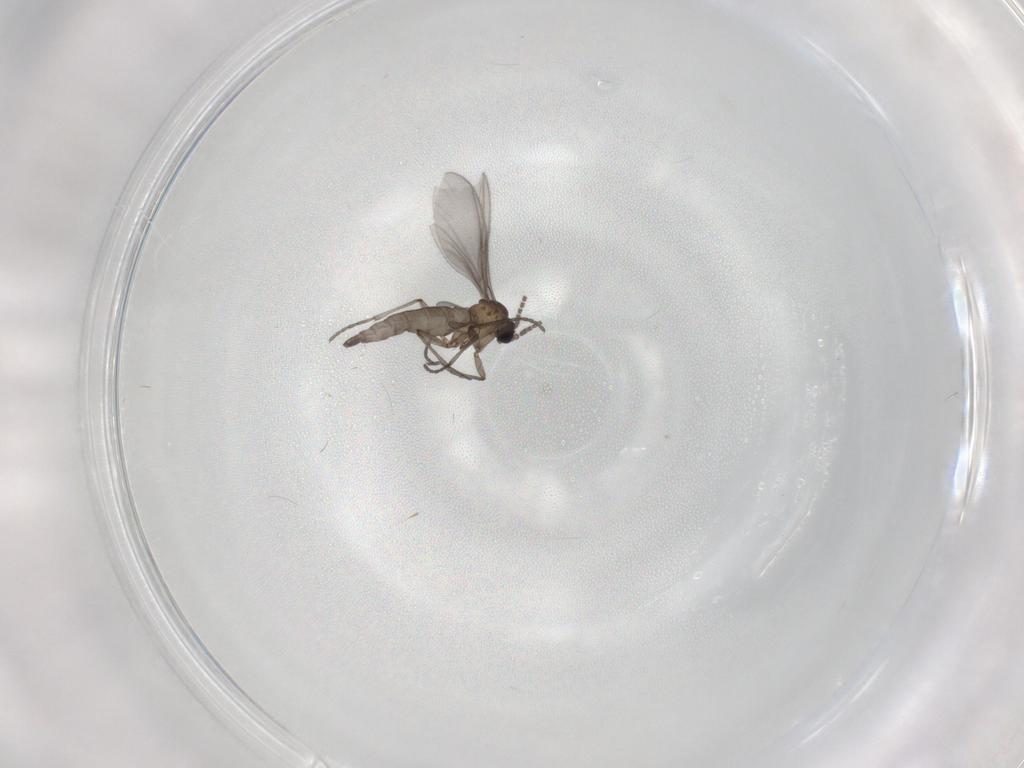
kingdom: Animalia
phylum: Arthropoda
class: Insecta
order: Diptera
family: Sciaridae
